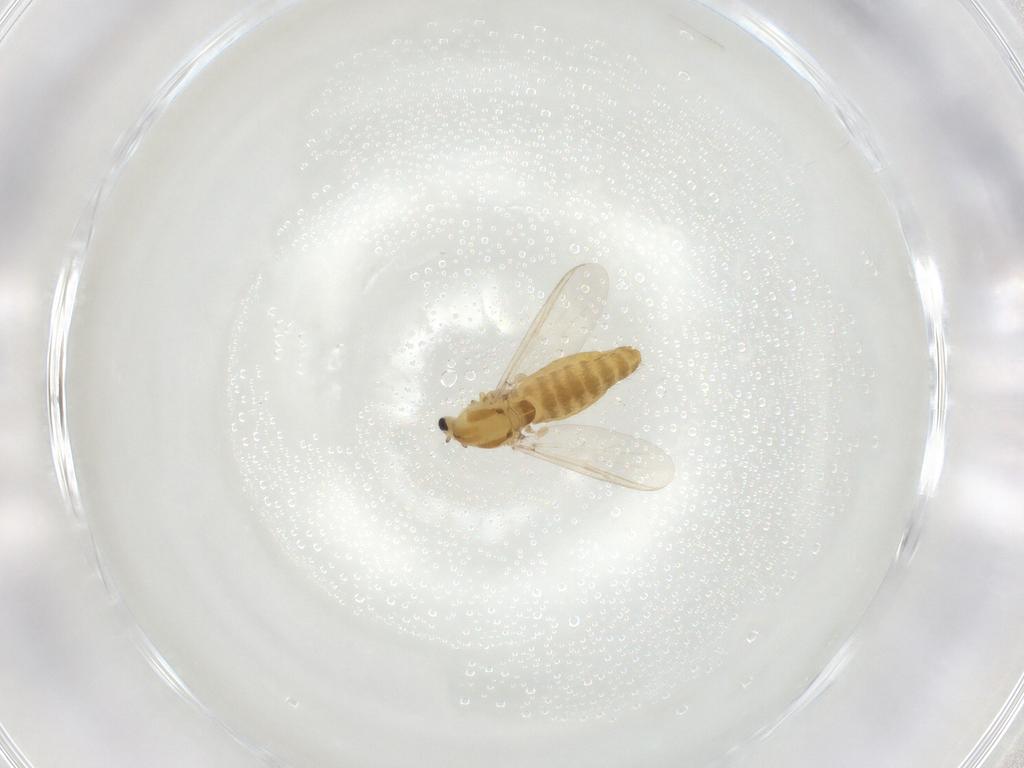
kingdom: Animalia
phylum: Arthropoda
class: Insecta
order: Diptera
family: Chironomidae
